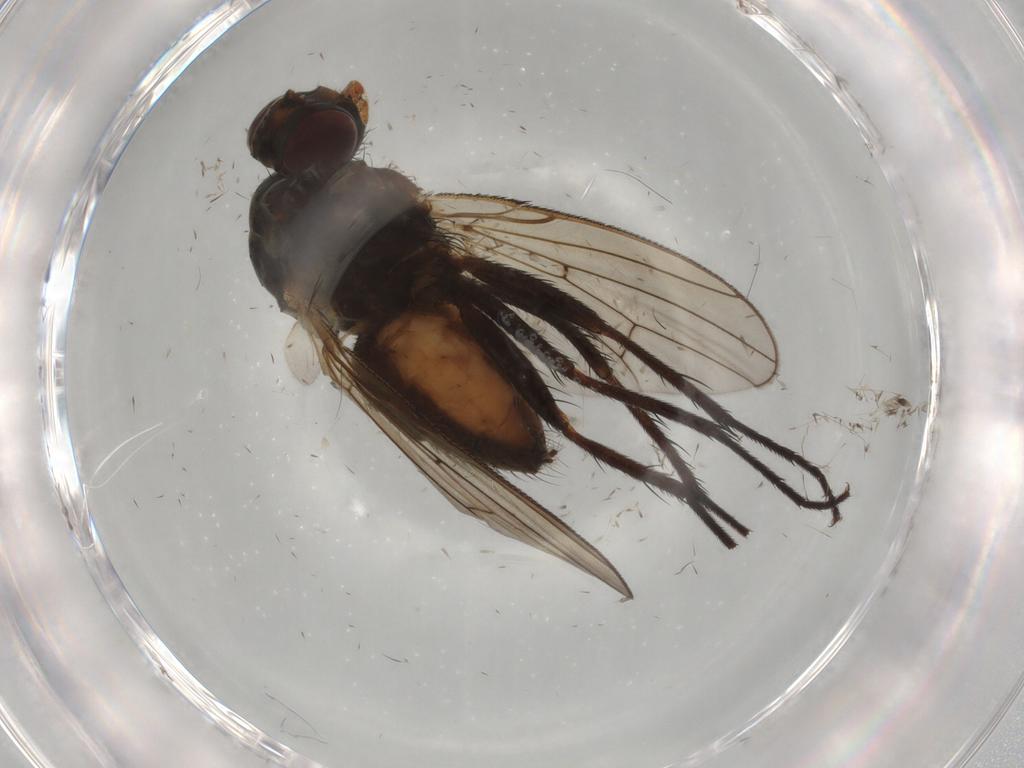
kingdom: Animalia
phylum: Arthropoda
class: Insecta
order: Diptera
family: Anthomyiidae
